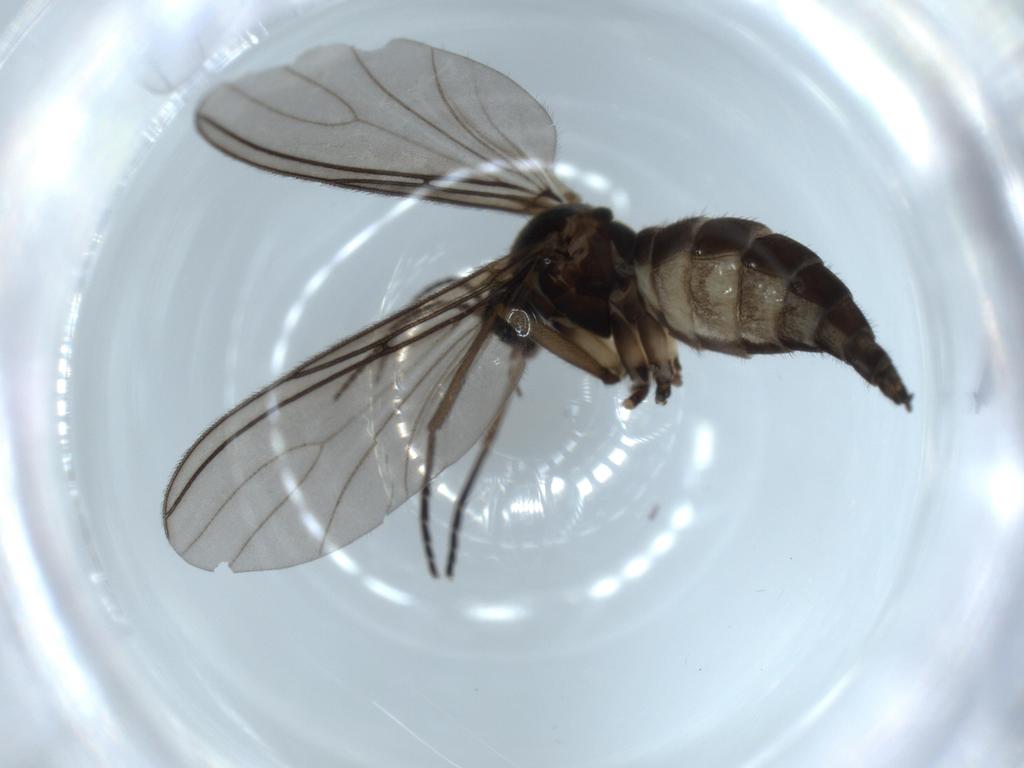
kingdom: Animalia
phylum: Arthropoda
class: Insecta
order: Diptera
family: Sciaridae
